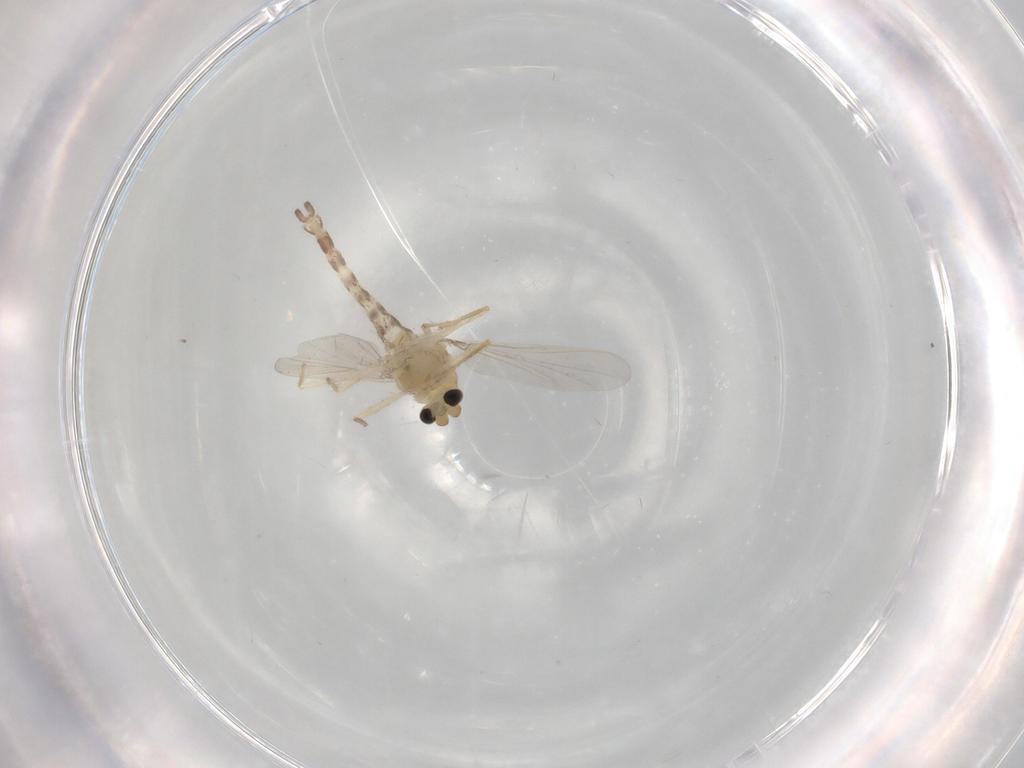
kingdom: Animalia
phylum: Arthropoda
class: Insecta
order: Diptera
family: Chironomidae
